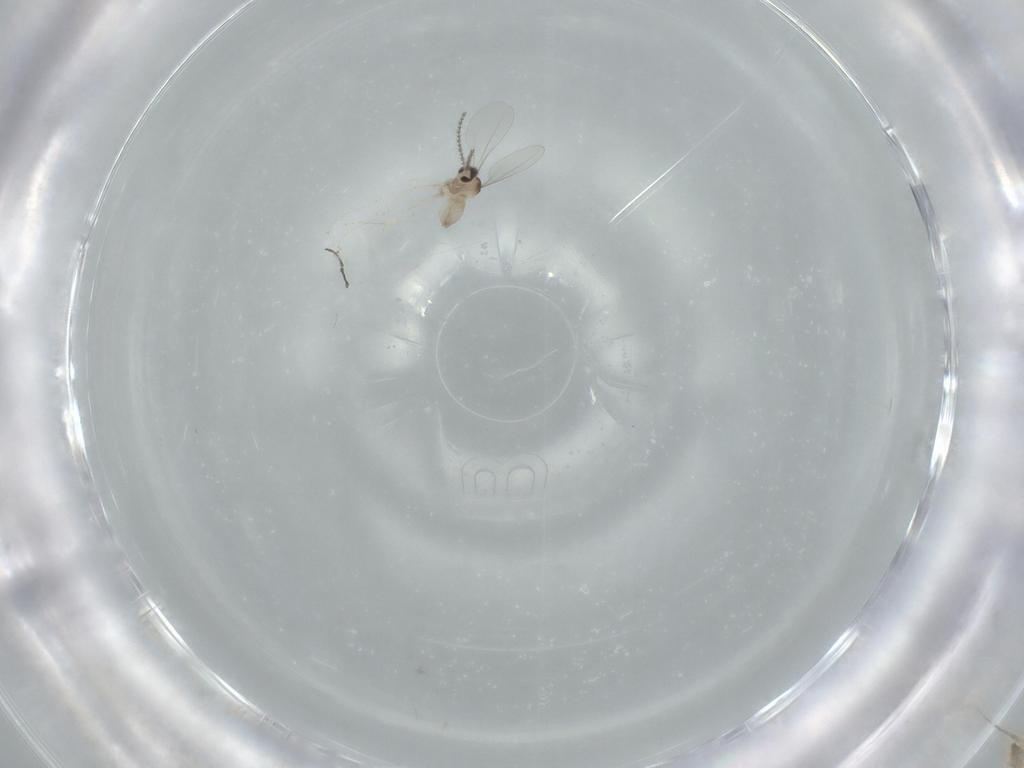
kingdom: Animalia
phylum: Arthropoda
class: Insecta
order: Diptera
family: Cecidomyiidae
